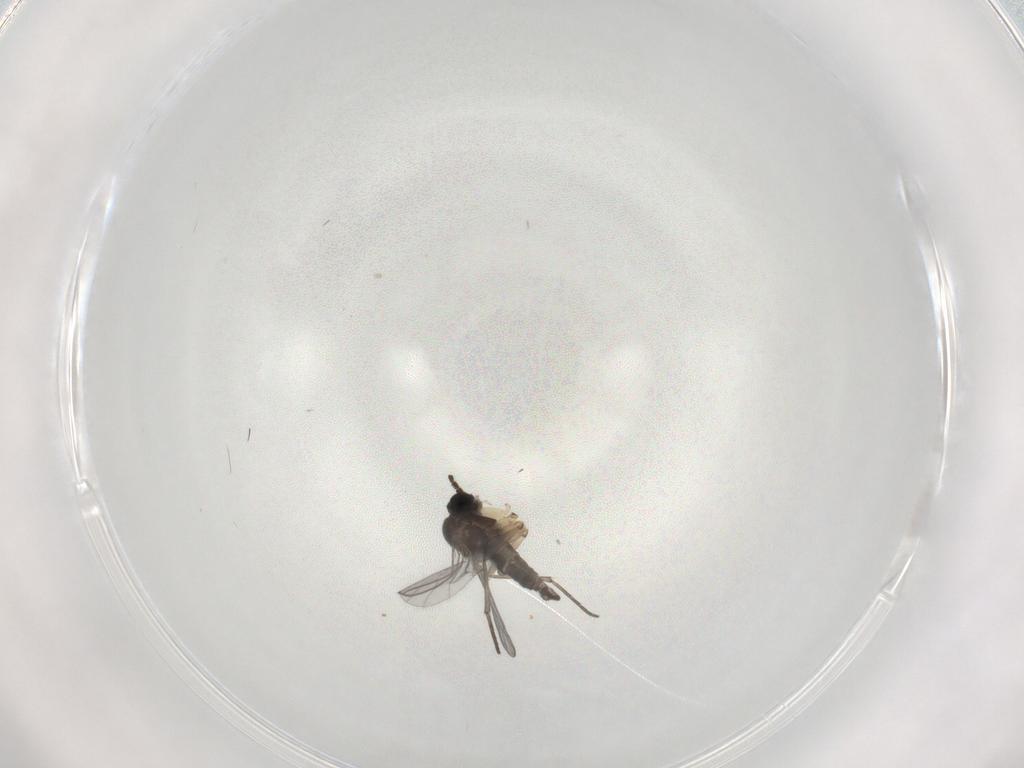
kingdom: Animalia
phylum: Arthropoda
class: Insecta
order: Diptera
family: Sciaridae
